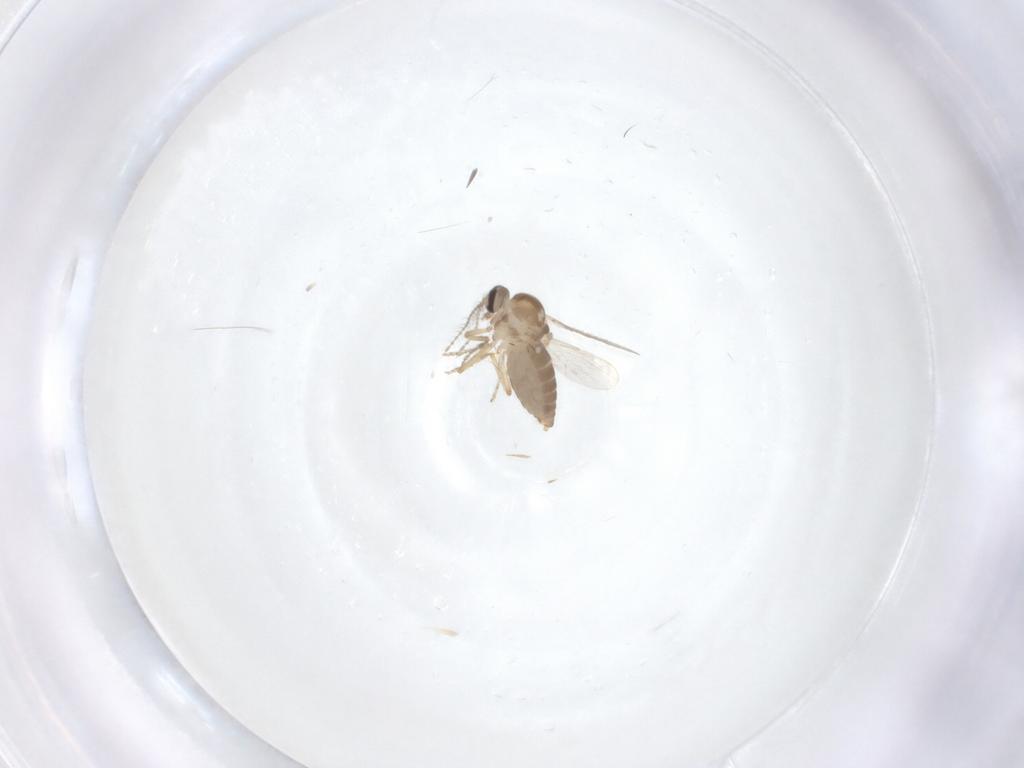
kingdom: Animalia
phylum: Arthropoda
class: Insecta
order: Diptera
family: Ceratopogonidae
